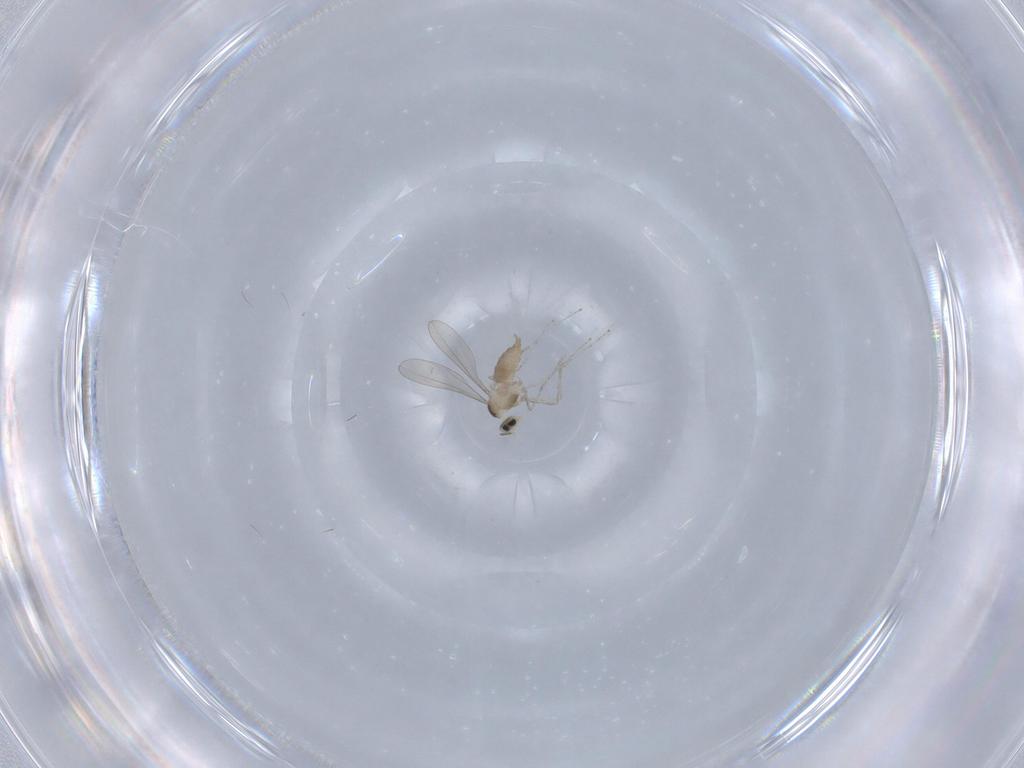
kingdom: Animalia
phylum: Arthropoda
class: Insecta
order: Diptera
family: Cecidomyiidae
